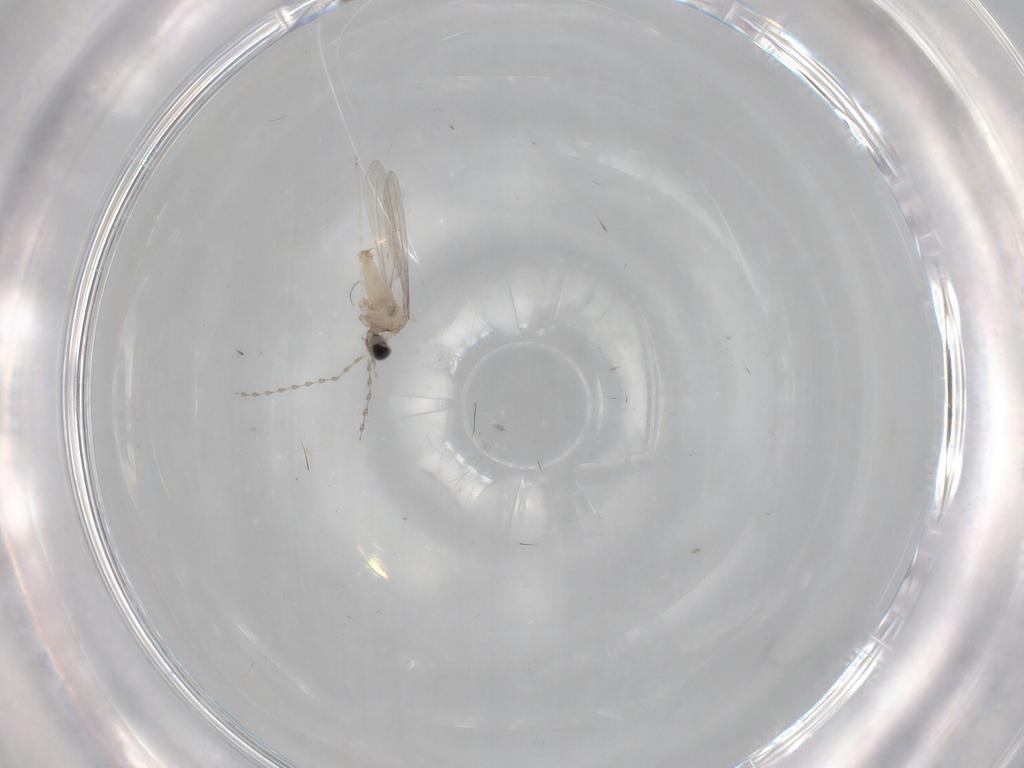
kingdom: Animalia
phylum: Arthropoda
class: Insecta
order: Diptera
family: Cecidomyiidae
